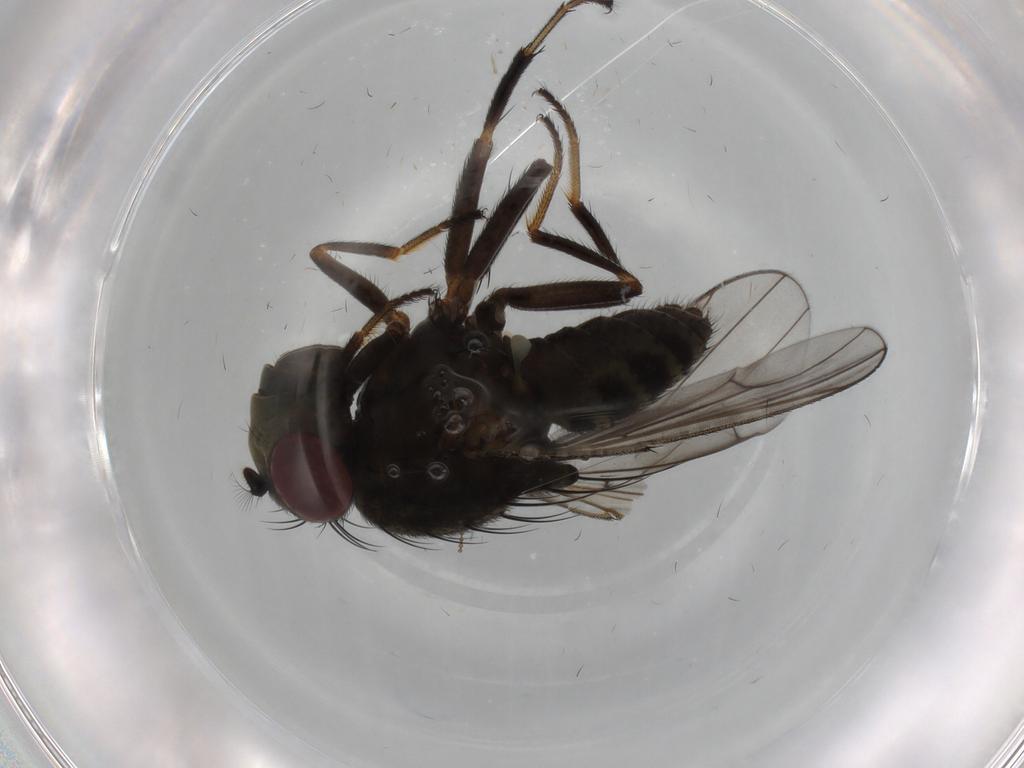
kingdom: Animalia
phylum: Arthropoda
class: Insecta
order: Diptera
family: Ephydridae
